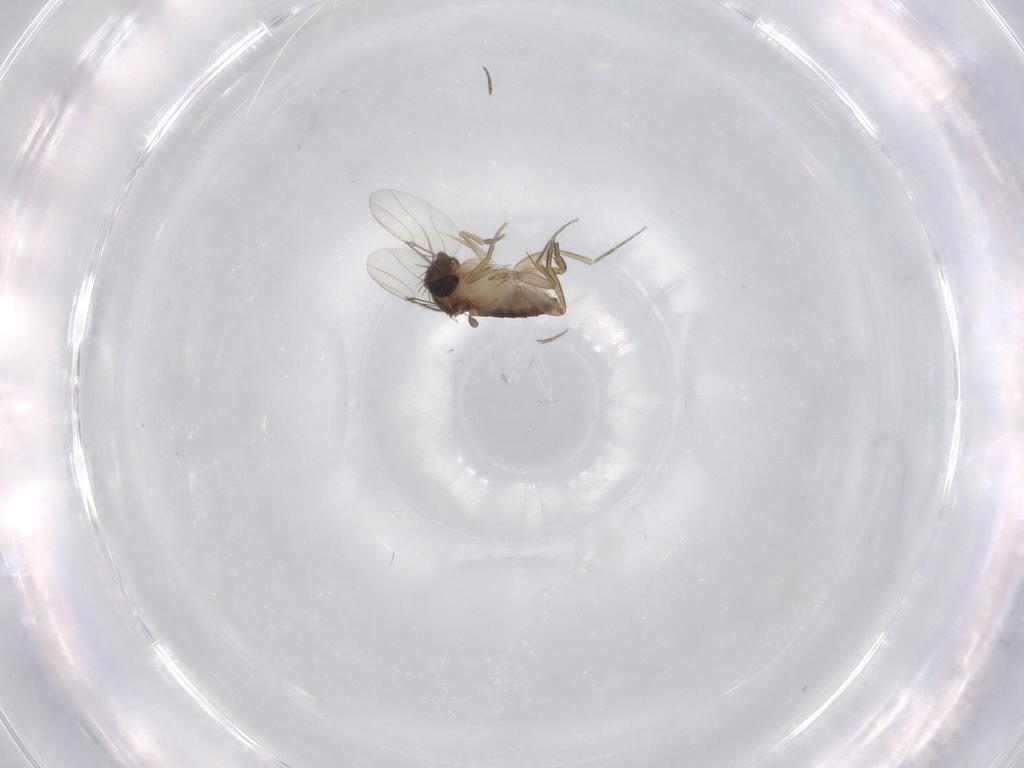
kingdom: Animalia
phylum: Arthropoda
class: Insecta
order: Diptera
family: Phoridae
